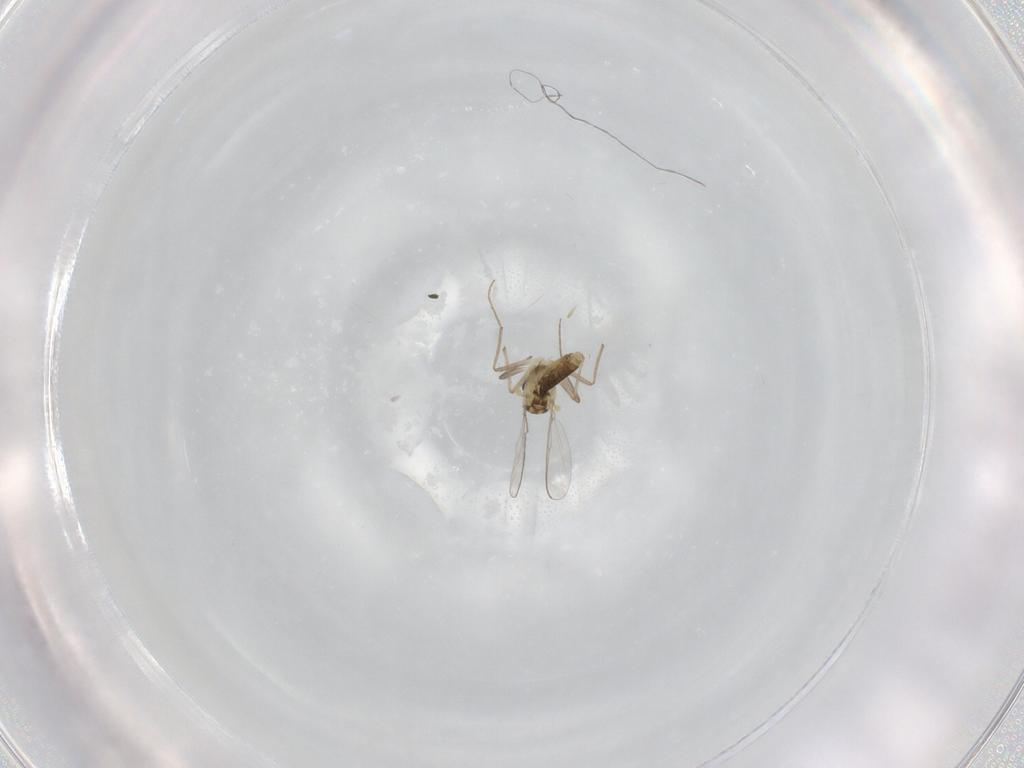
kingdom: Animalia
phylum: Arthropoda
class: Insecta
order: Diptera
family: Chironomidae
